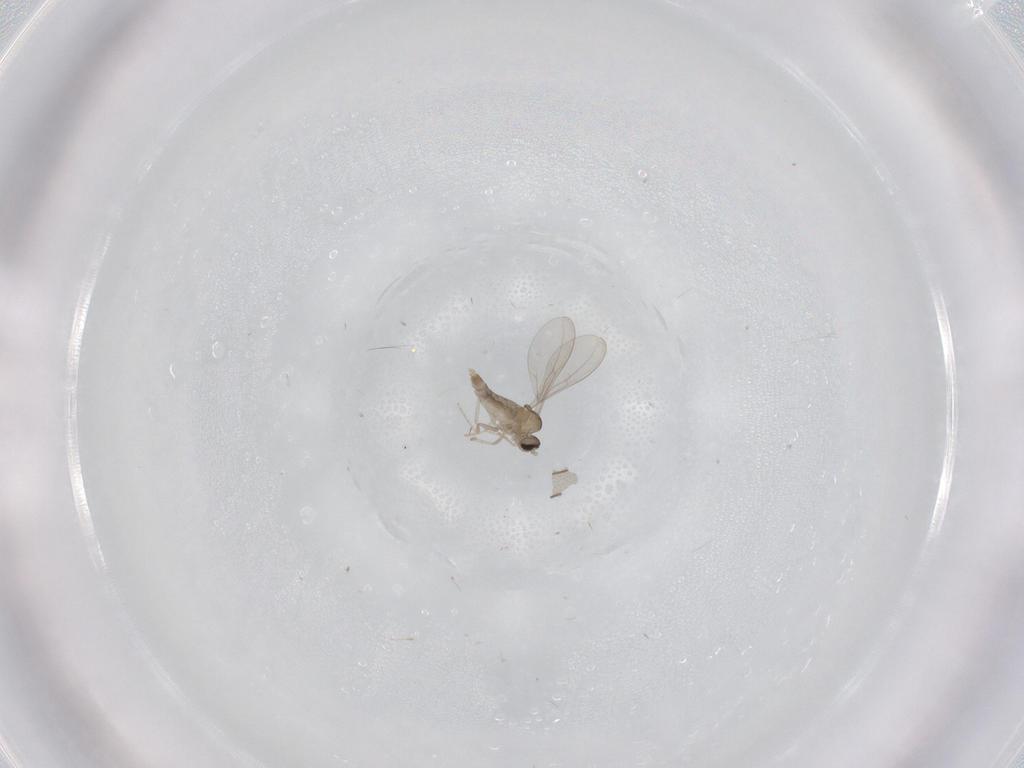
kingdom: Animalia
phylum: Arthropoda
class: Insecta
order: Diptera
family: Cecidomyiidae
